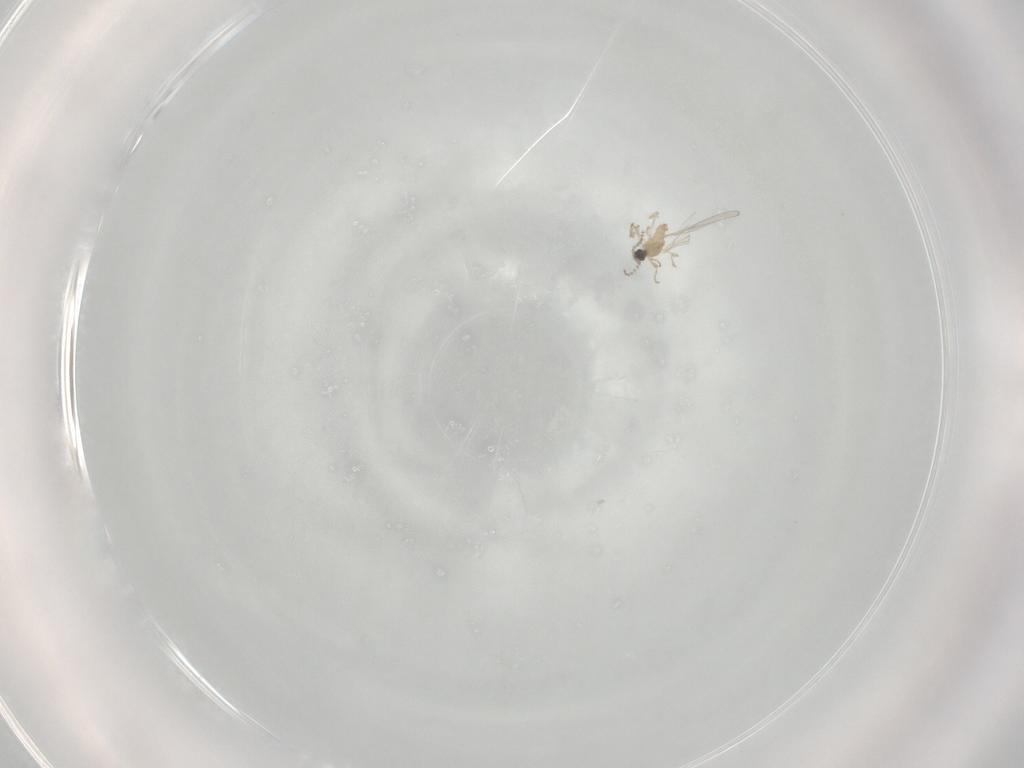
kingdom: Animalia
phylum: Arthropoda
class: Insecta
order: Diptera
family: Cecidomyiidae
